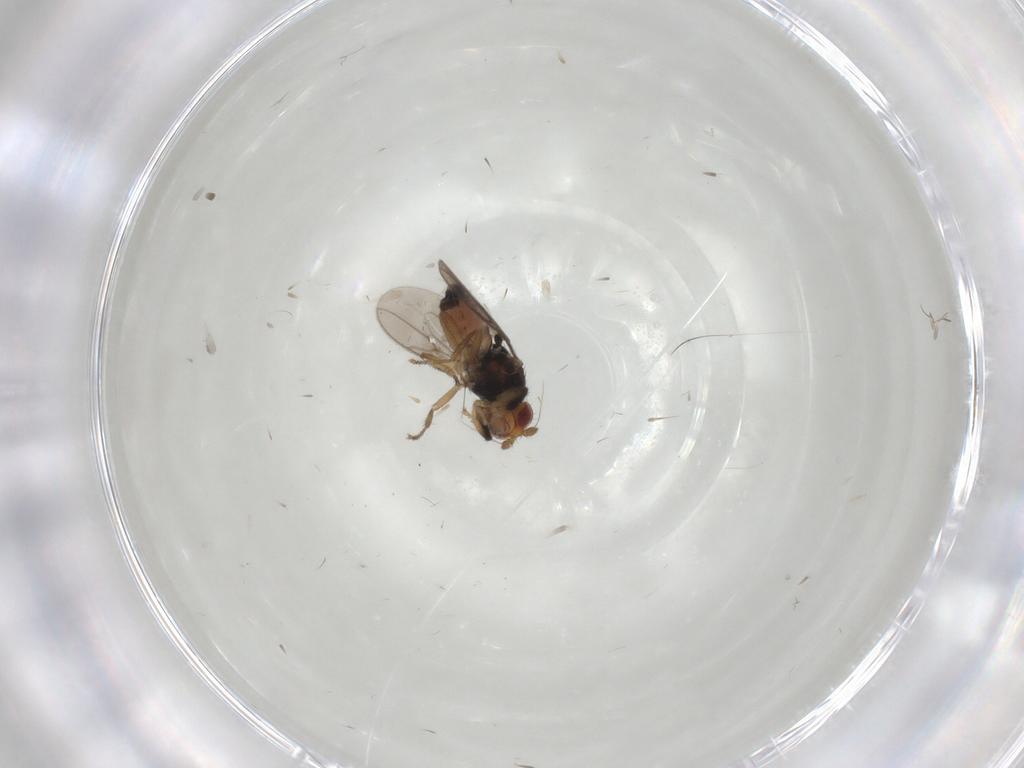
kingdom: Animalia
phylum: Arthropoda
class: Insecta
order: Diptera
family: Sphaeroceridae
